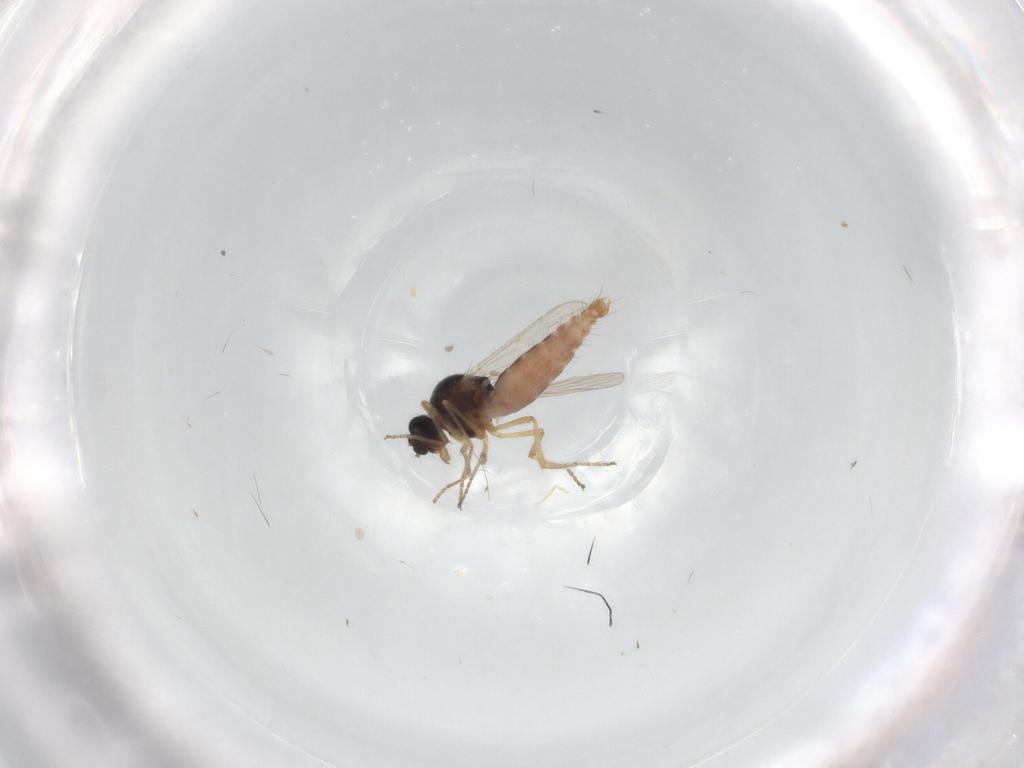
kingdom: Animalia
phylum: Arthropoda
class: Insecta
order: Diptera
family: Ceratopogonidae
